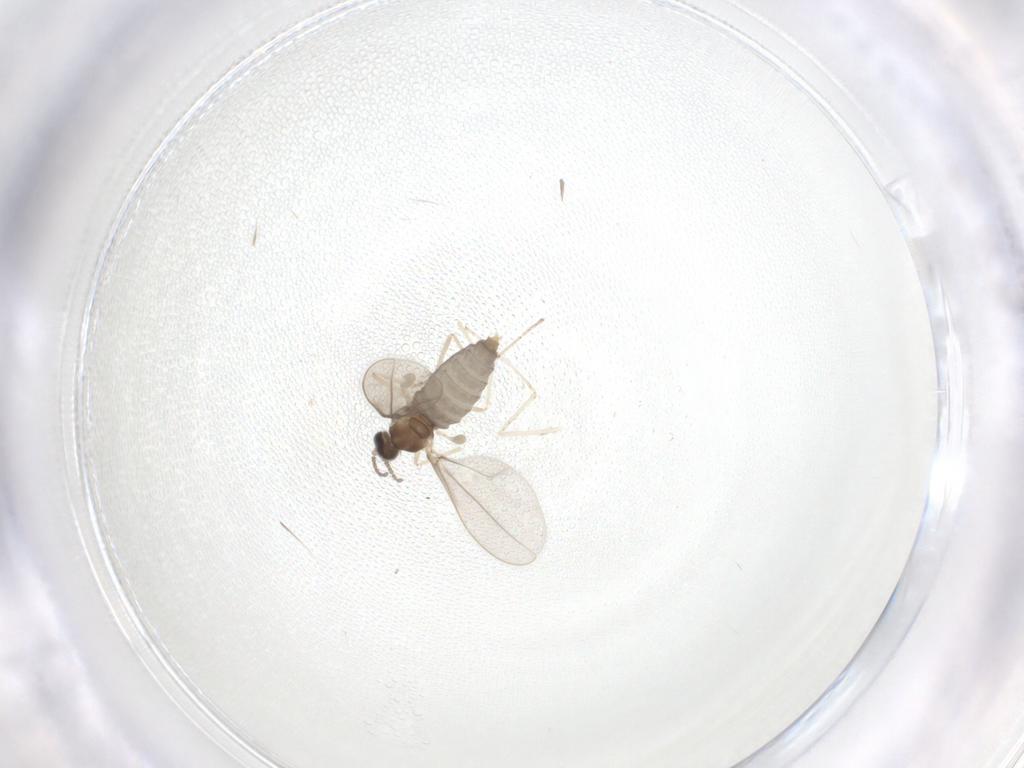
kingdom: Animalia
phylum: Arthropoda
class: Insecta
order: Diptera
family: Cecidomyiidae
